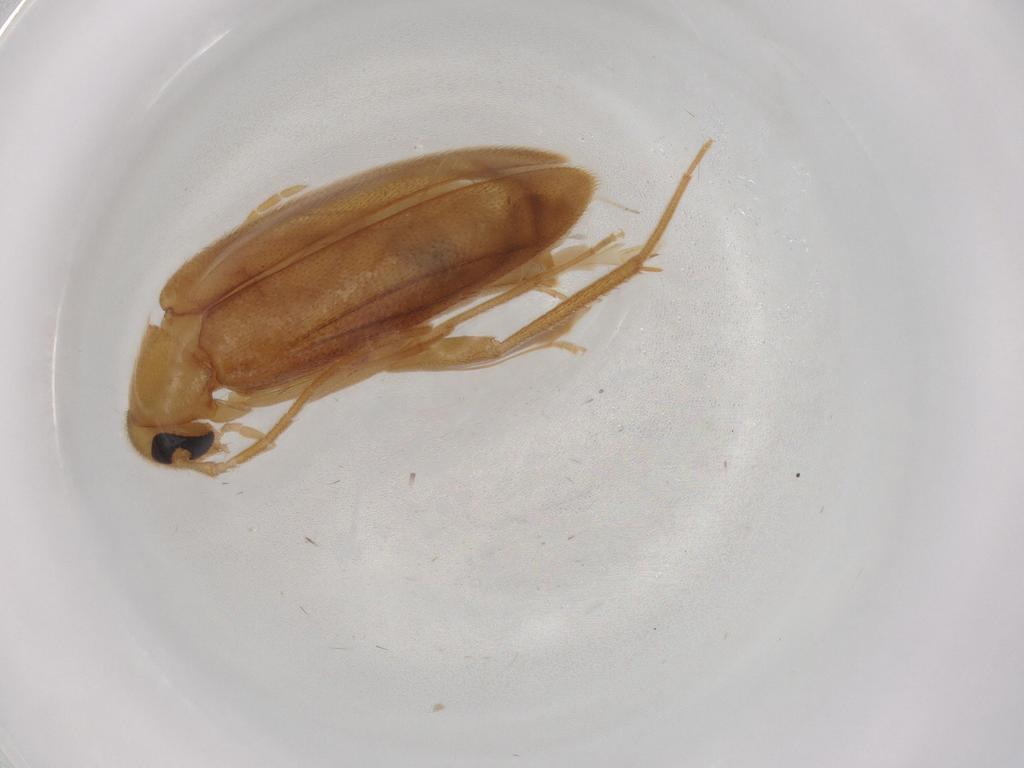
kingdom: Animalia
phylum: Arthropoda
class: Insecta
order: Coleoptera
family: Scraptiidae
